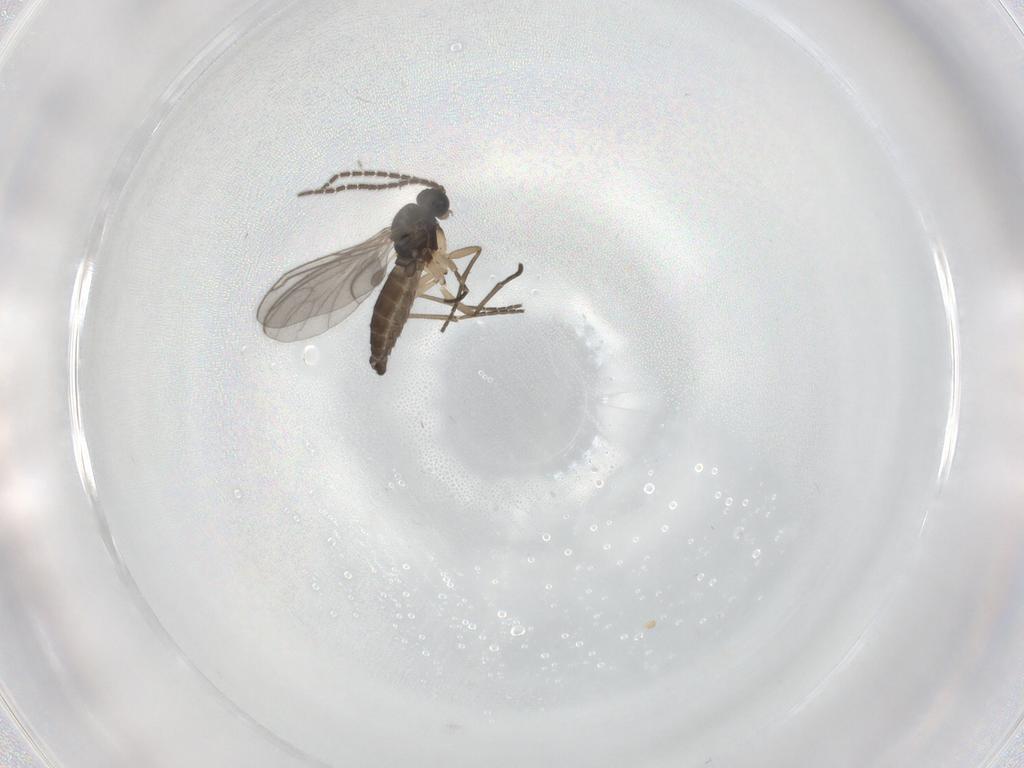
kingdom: Animalia
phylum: Arthropoda
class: Insecta
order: Diptera
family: Sciaridae
